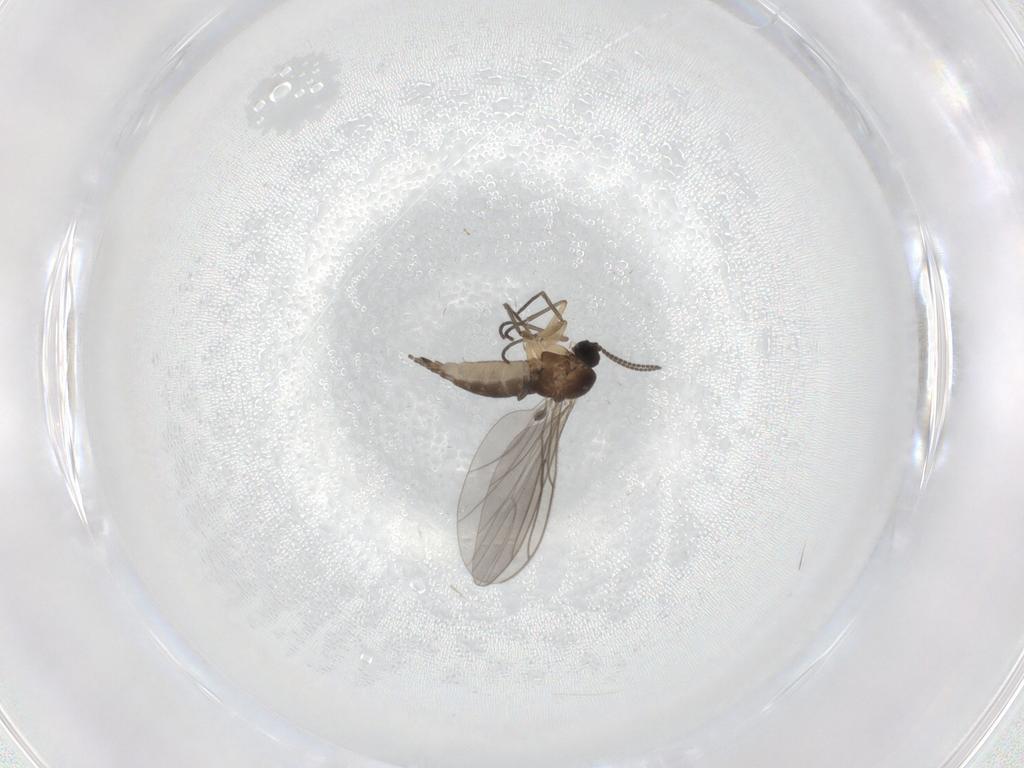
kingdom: Animalia
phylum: Arthropoda
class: Insecta
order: Diptera
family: Sciaridae
